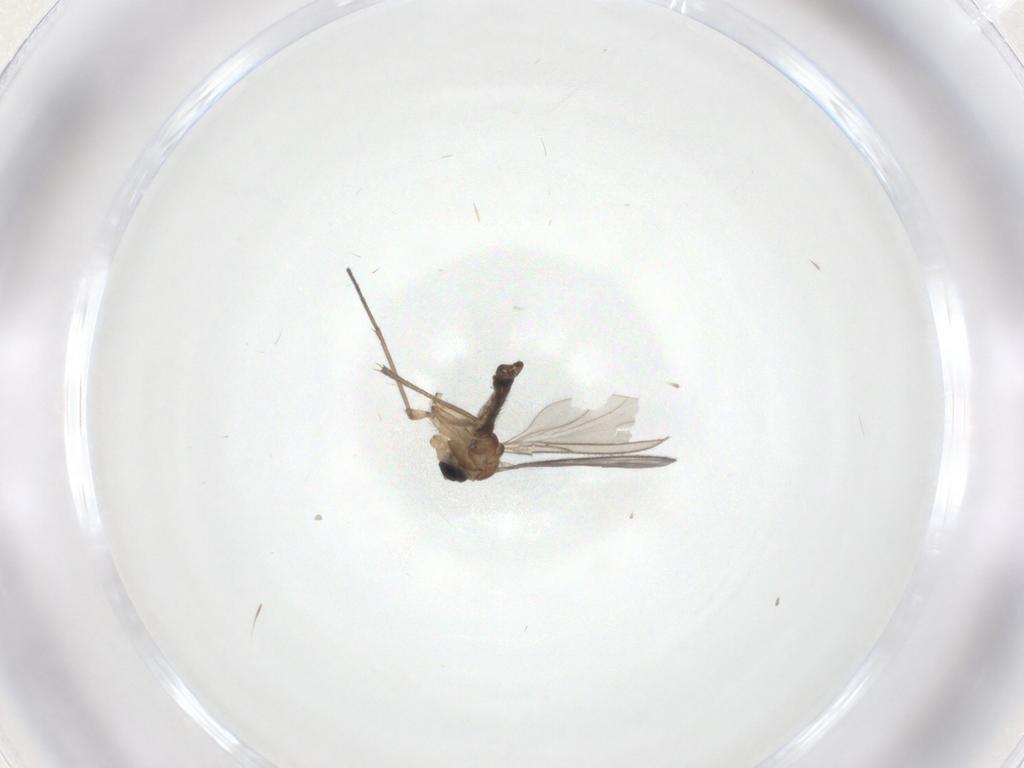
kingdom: Animalia
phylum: Arthropoda
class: Insecta
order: Diptera
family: Sciaridae
